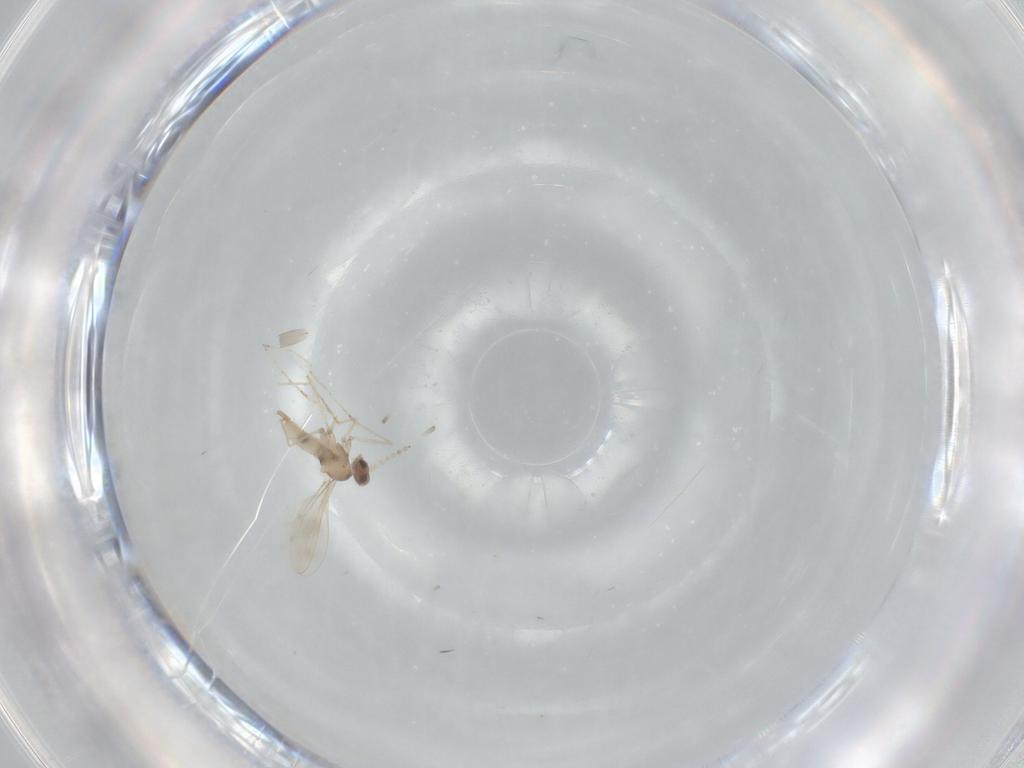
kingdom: Animalia
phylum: Arthropoda
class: Insecta
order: Diptera
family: Cecidomyiidae
